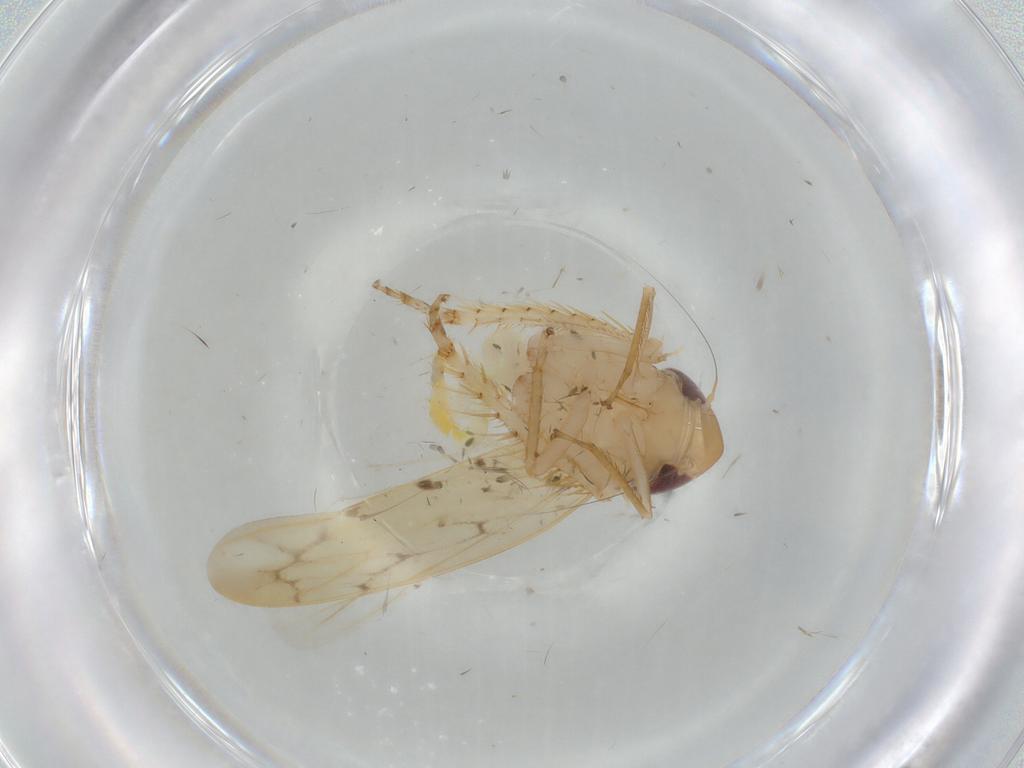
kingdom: Animalia
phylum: Arthropoda
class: Insecta
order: Hemiptera
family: Cicadellidae
